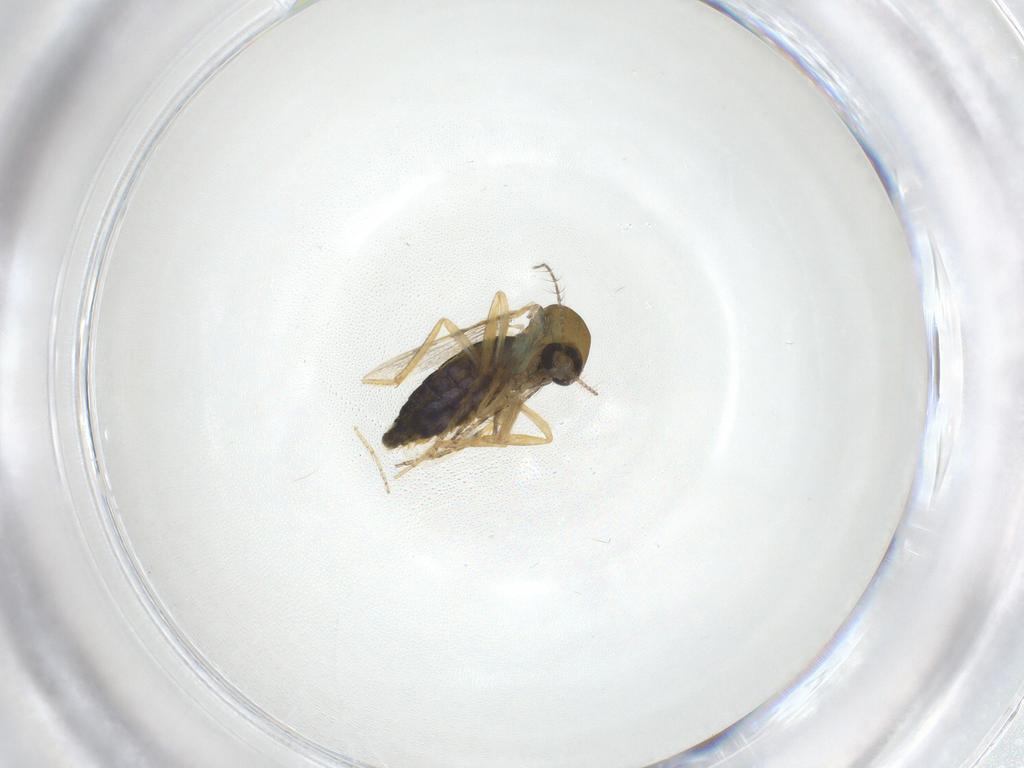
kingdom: Animalia
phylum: Arthropoda
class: Insecta
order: Diptera
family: Ceratopogonidae
